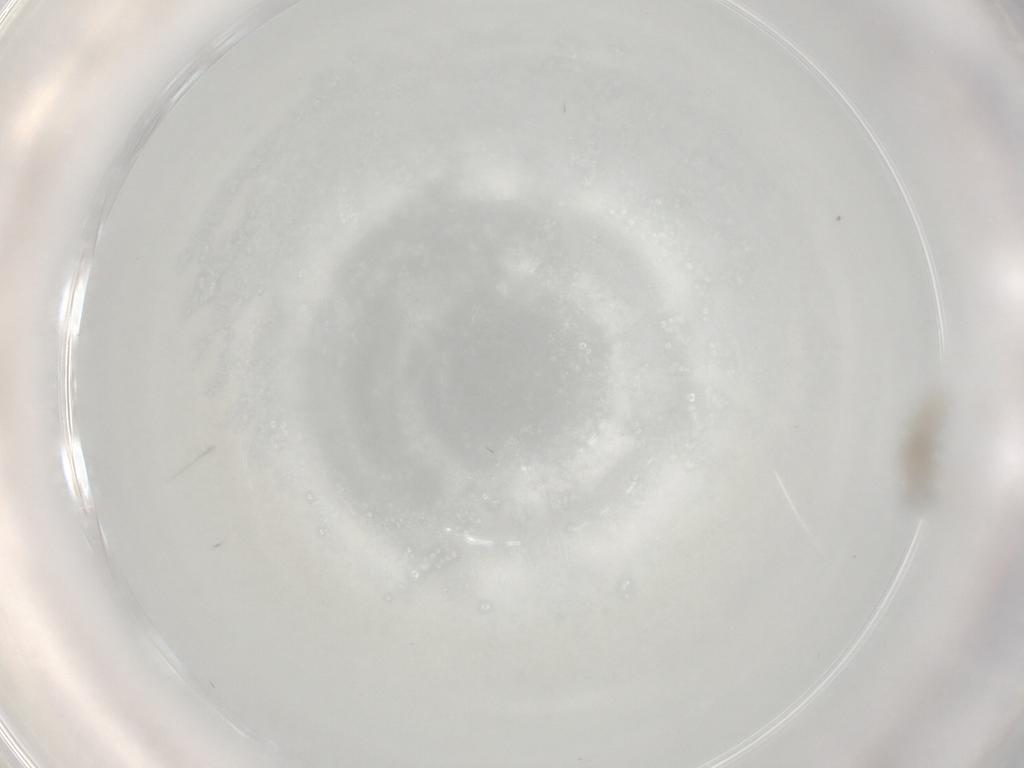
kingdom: Animalia
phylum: Arthropoda
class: Insecta
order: Diptera
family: Cecidomyiidae
